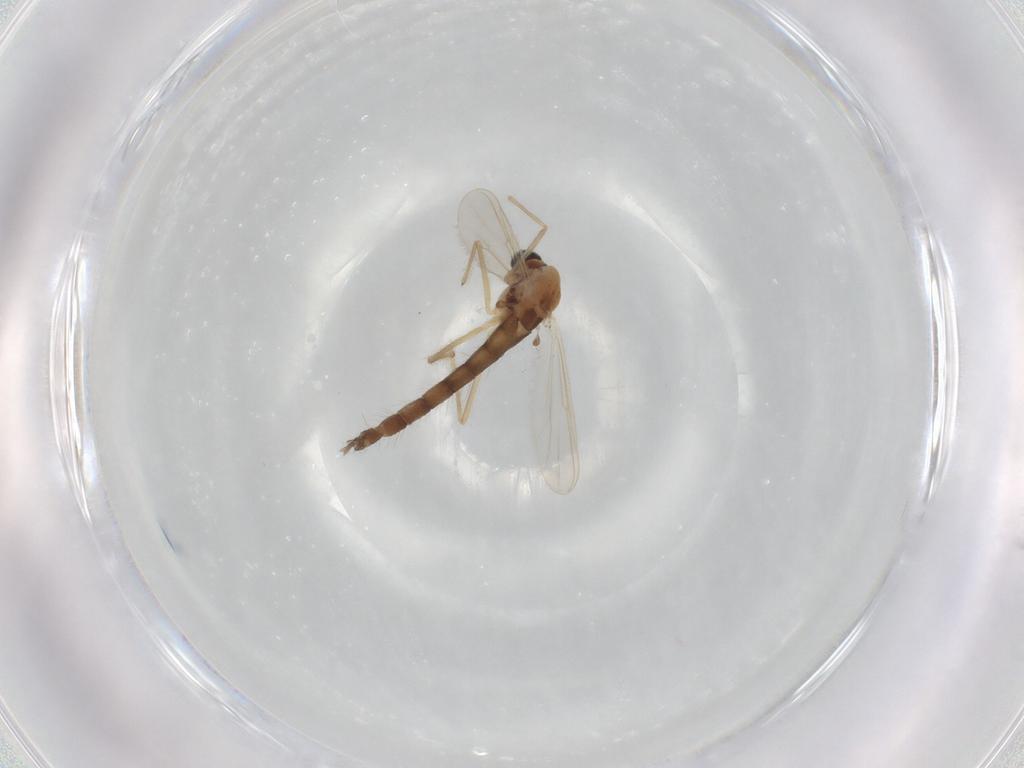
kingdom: Animalia
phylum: Arthropoda
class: Insecta
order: Diptera
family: Chironomidae
